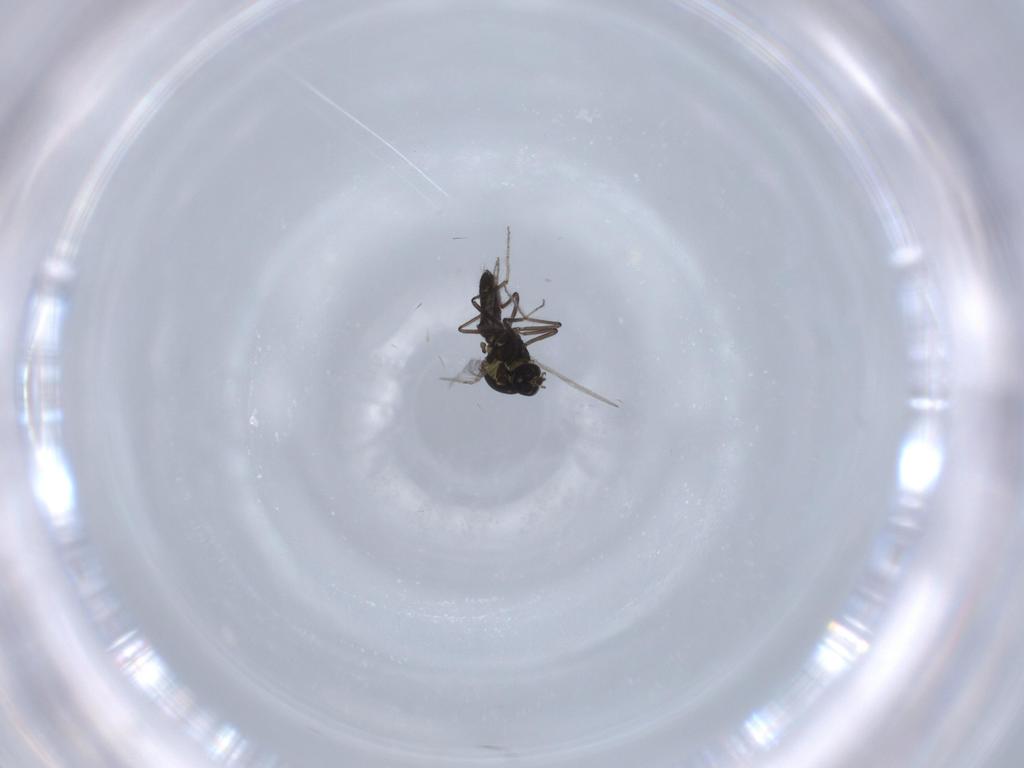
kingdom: Animalia
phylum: Arthropoda
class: Insecta
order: Diptera
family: Ceratopogonidae
